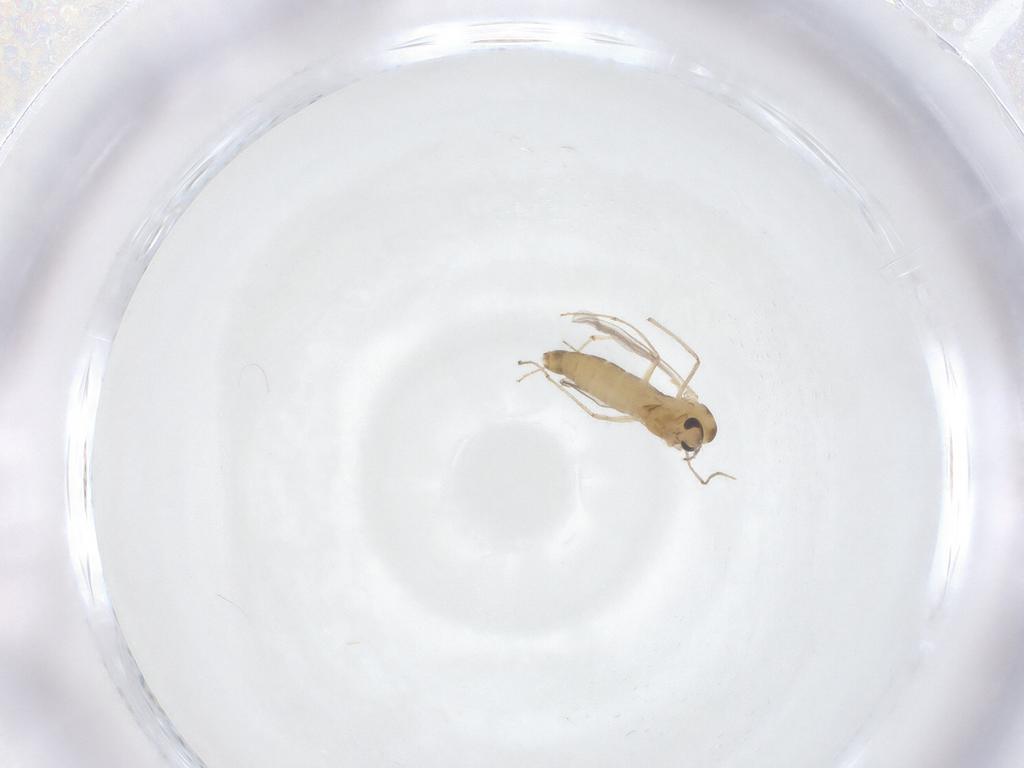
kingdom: Animalia
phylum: Arthropoda
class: Insecta
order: Diptera
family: Chironomidae
